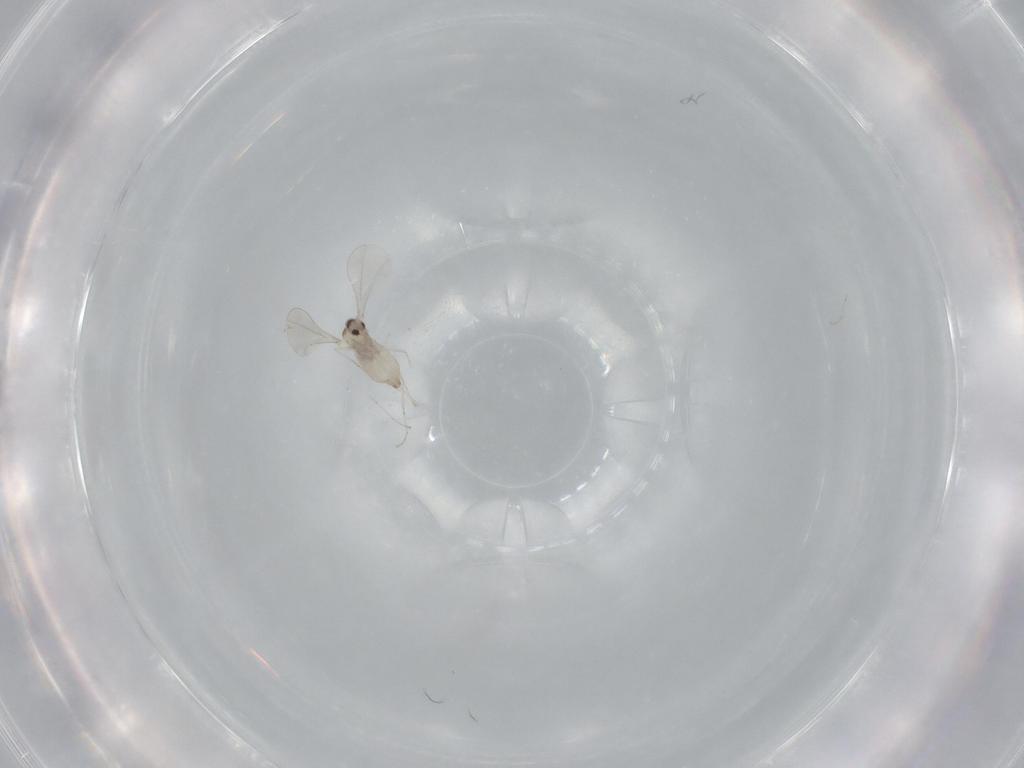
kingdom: Animalia
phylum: Arthropoda
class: Insecta
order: Diptera
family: Cecidomyiidae
